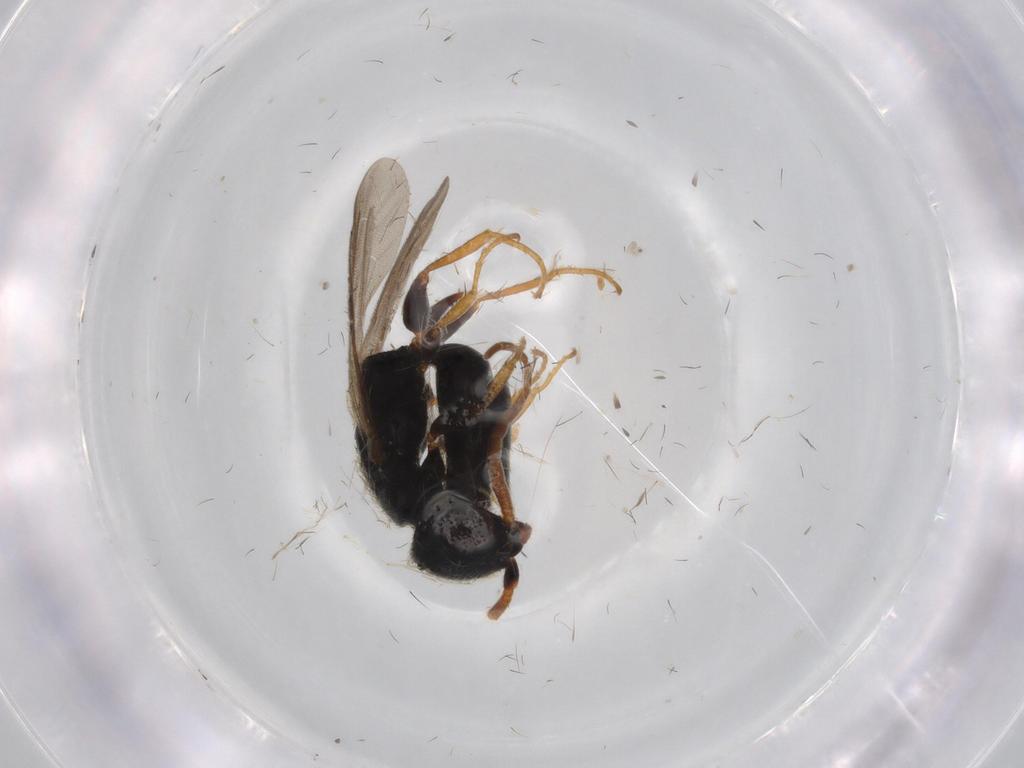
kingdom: Animalia
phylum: Arthropoda
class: Insecta
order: Hymenoptera
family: Bethylidae
